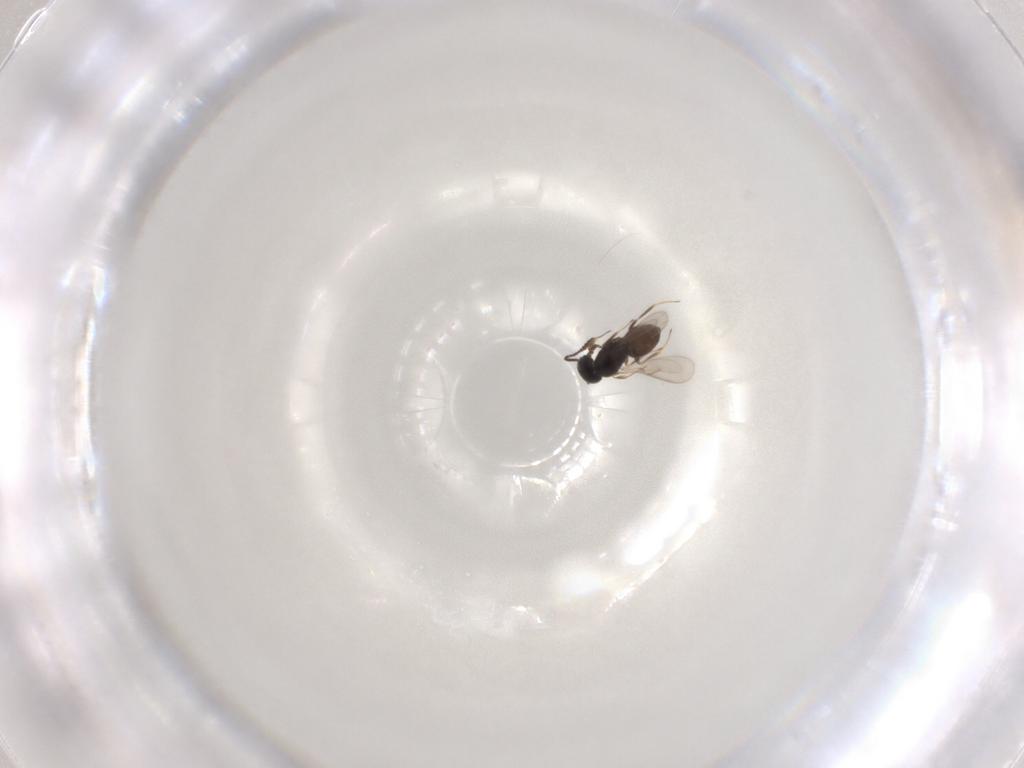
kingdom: Animalia
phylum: Arthropoda
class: Insecta
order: Hymenoptera
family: Scelionidae
